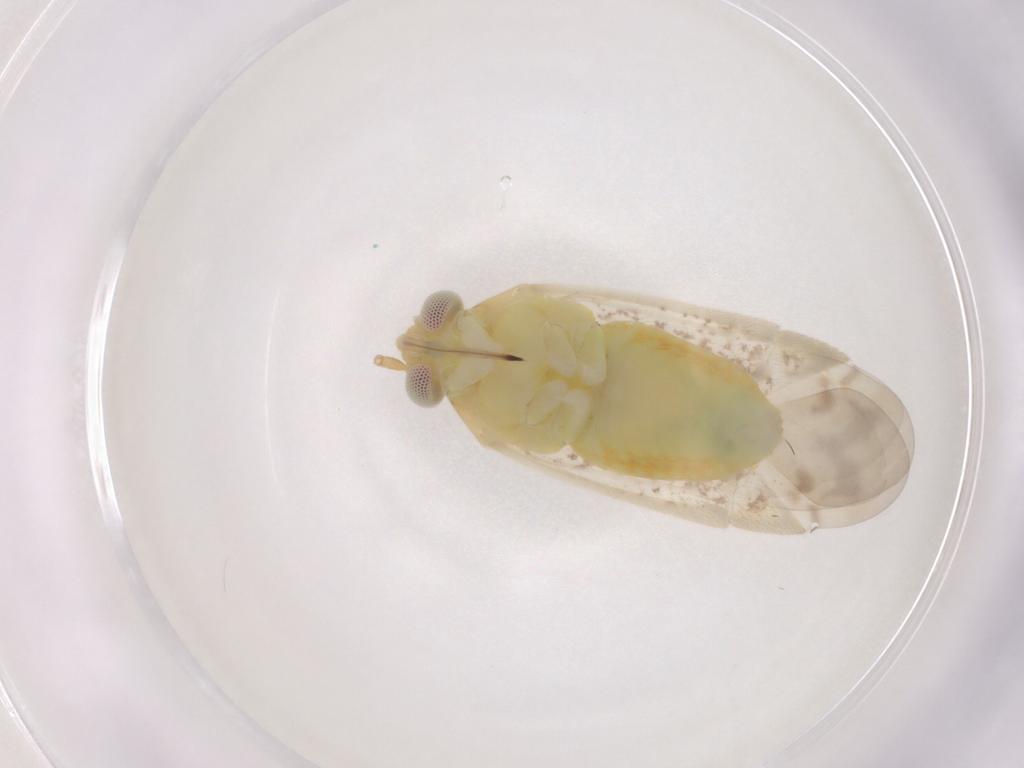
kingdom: Animalia
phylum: Arthropoda
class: Insecta
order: Hemiptera
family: Miridae
